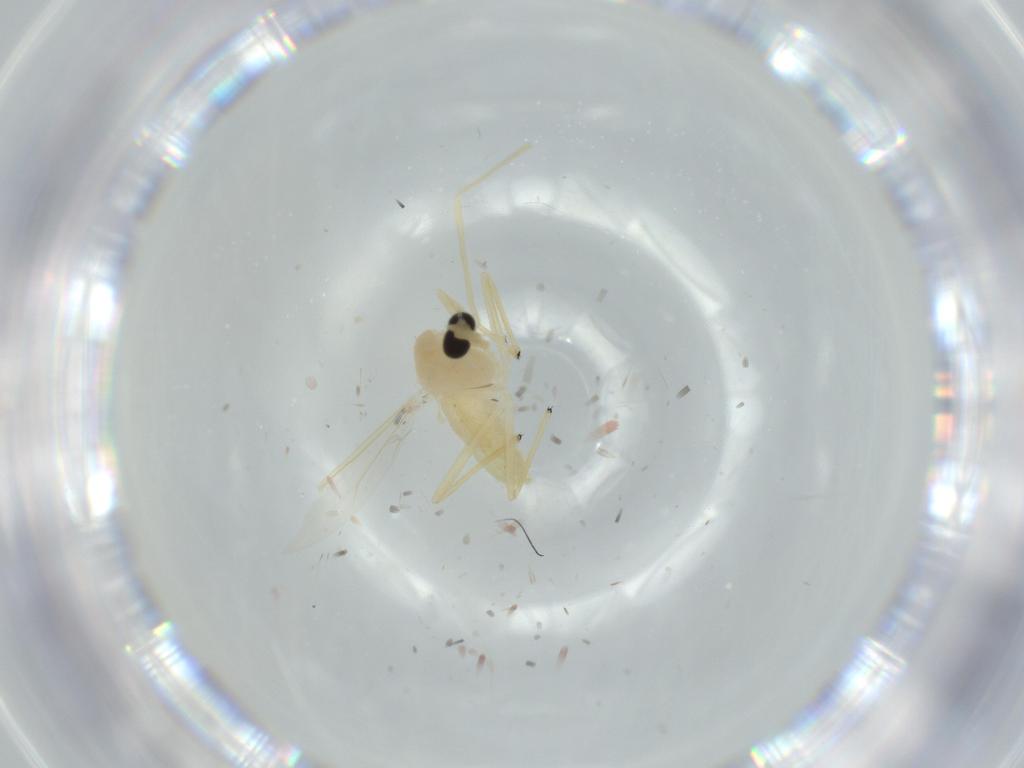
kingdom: Animalia
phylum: Arthropoda
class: Insecta
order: Diptera
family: Chironomidae
